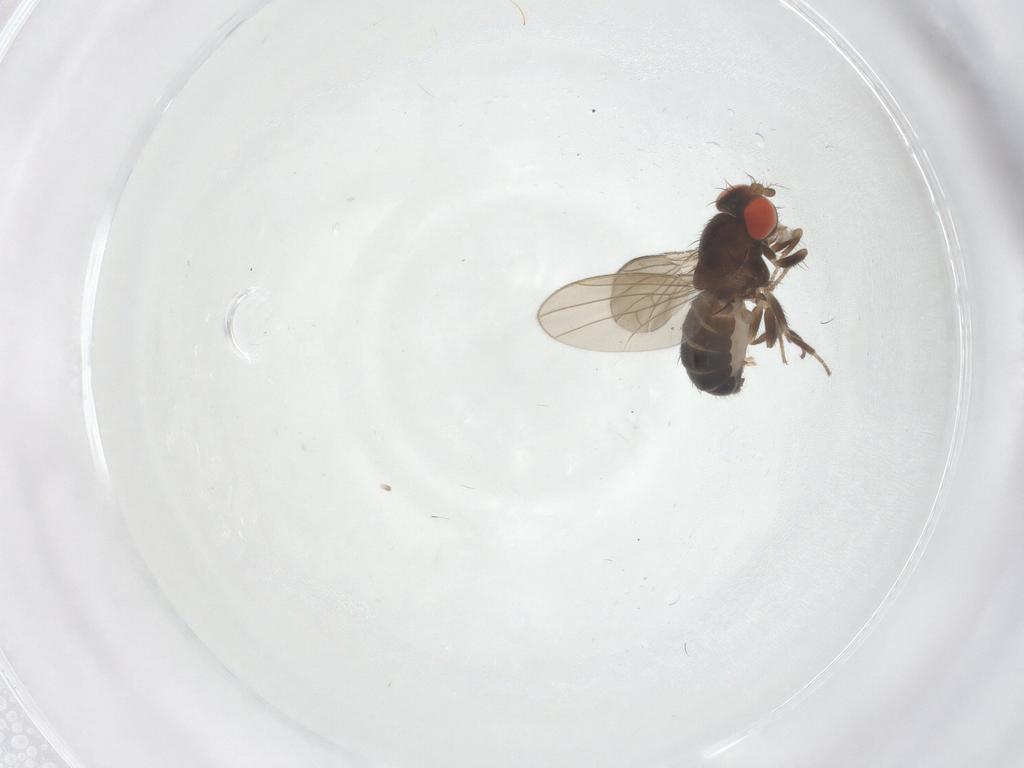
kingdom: Animalia
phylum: Arthropoda
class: Insecta
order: Diptera
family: Drosophilidae
